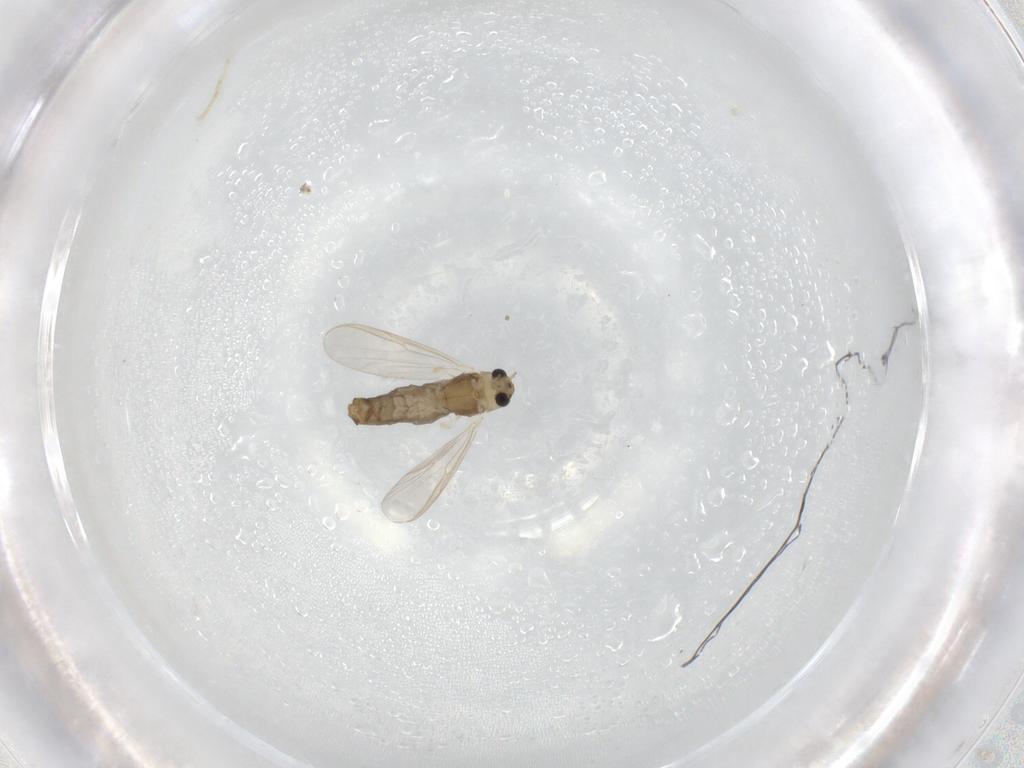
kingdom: Animalia
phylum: Arthropoda
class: Insecta
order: Diptera
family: Chironomidae
